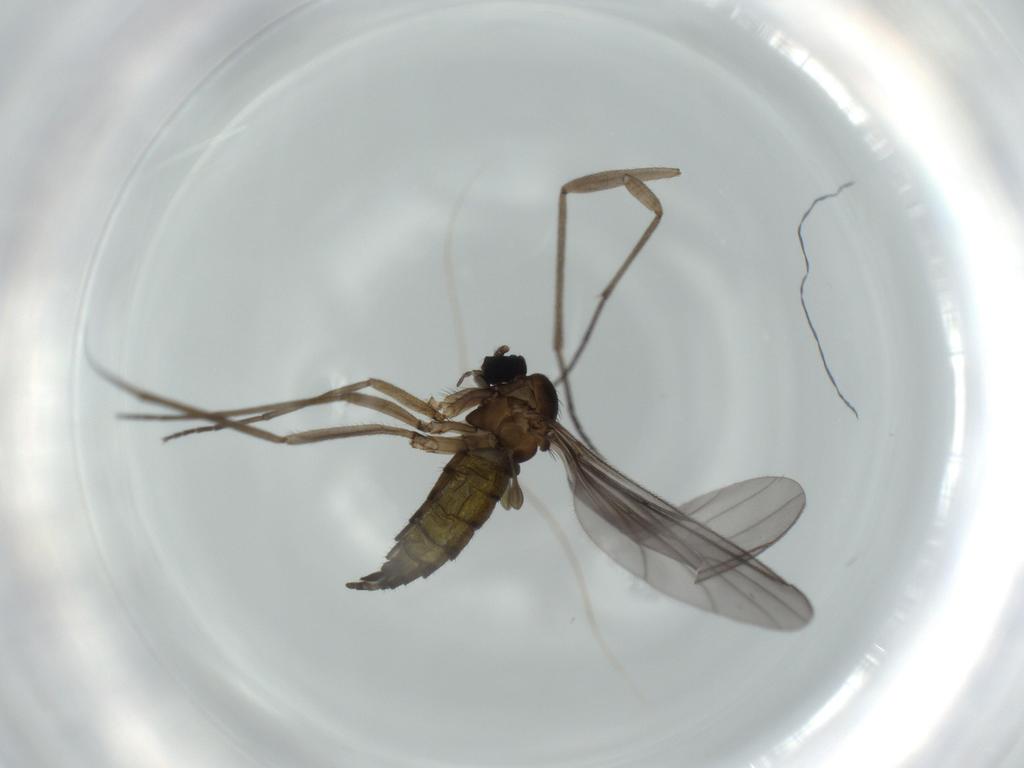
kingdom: Animalia
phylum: Arthropoda
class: Insecta
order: Diptera
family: Sciaridae
